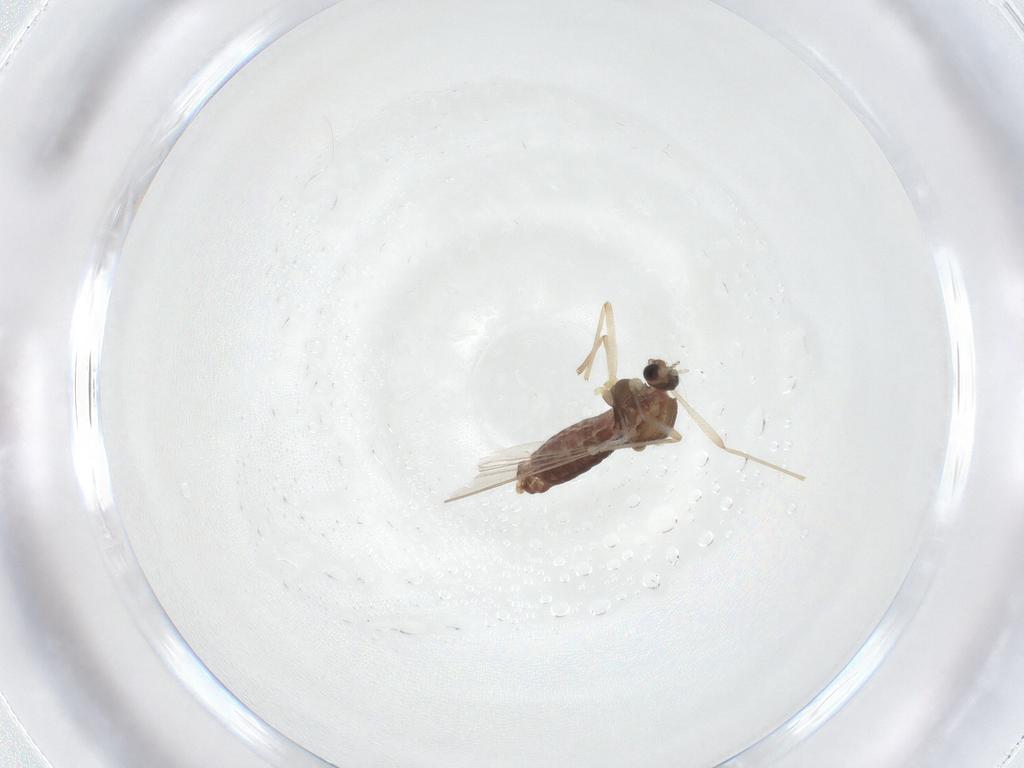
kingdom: Animalia
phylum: Arthropoda
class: Insecta
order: Diptera
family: Chironomidae
